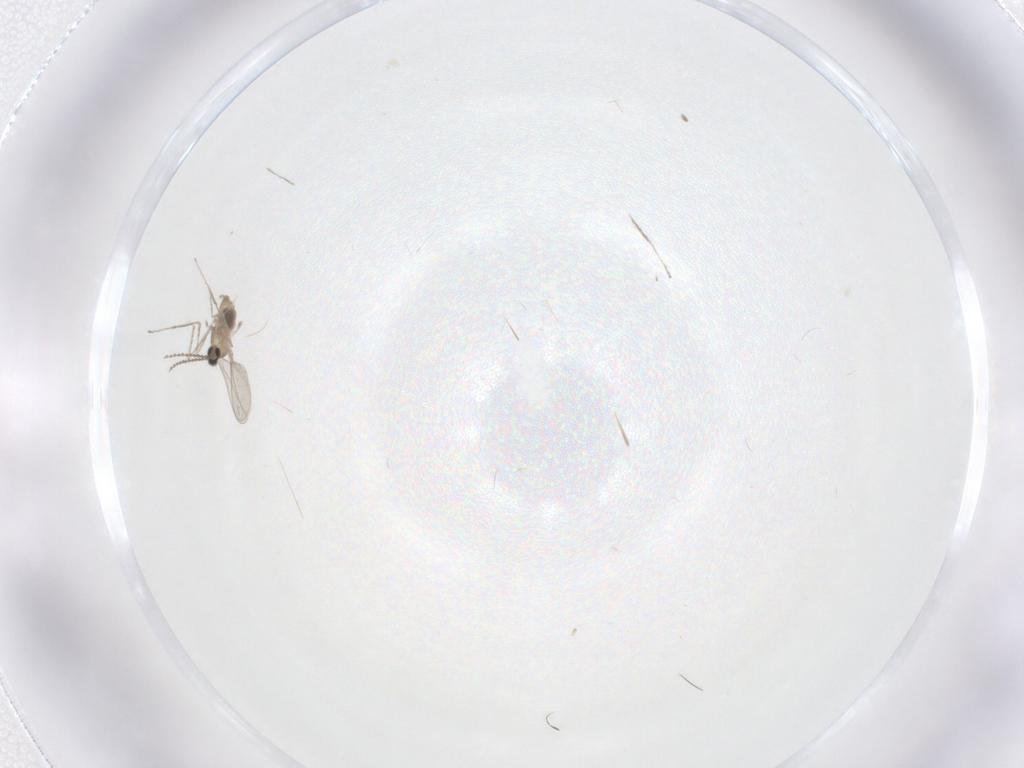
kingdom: Animalia
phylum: Arthropoda
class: Insecta
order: Diptera
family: Cecidomyiidae
